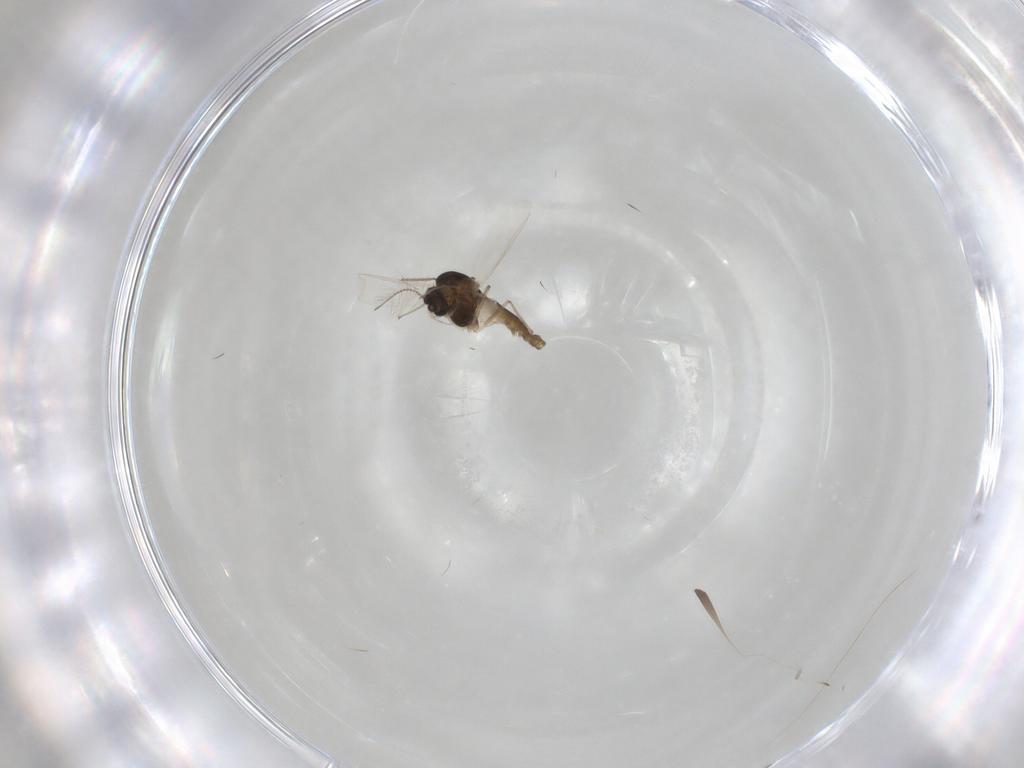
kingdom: Animalia
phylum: Arthropoda
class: Insecta
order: Diptera
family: Chironomidae
